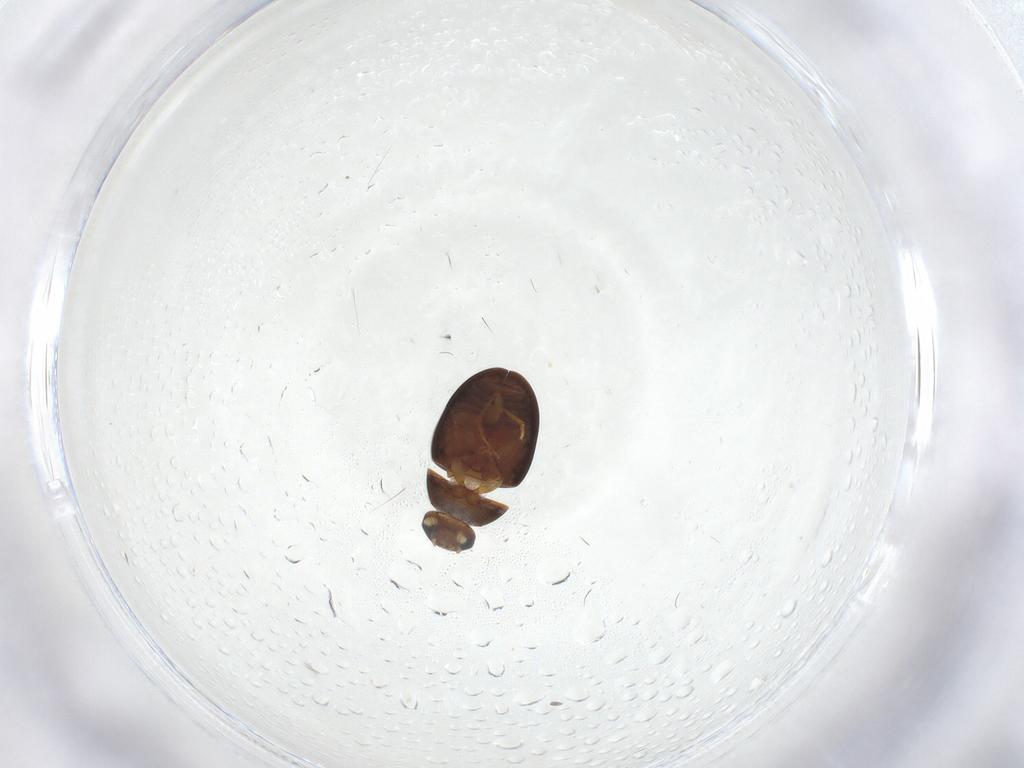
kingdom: Animalia
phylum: Arthropoda
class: Insecta
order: Coleoptera
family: Phalacridae
